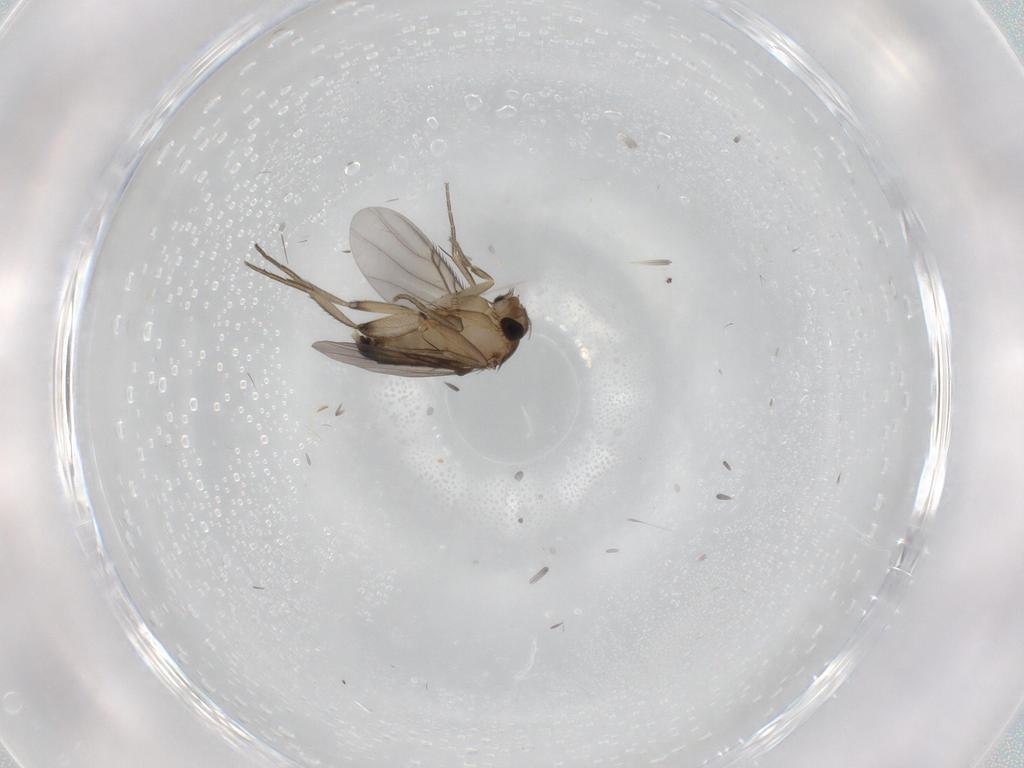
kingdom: Animalia
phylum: Arthropoda
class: Insecta
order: Diptera
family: Phoridae
